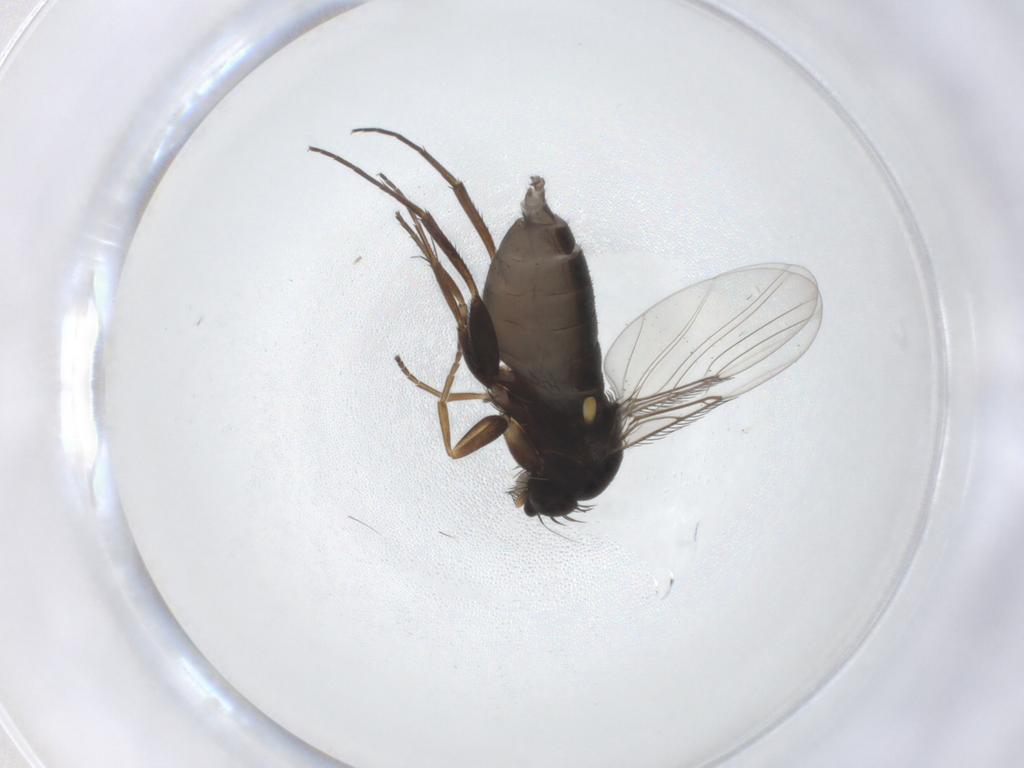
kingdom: Animalia
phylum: Arthropoda
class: Insecta
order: Diptera
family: Phoridae
